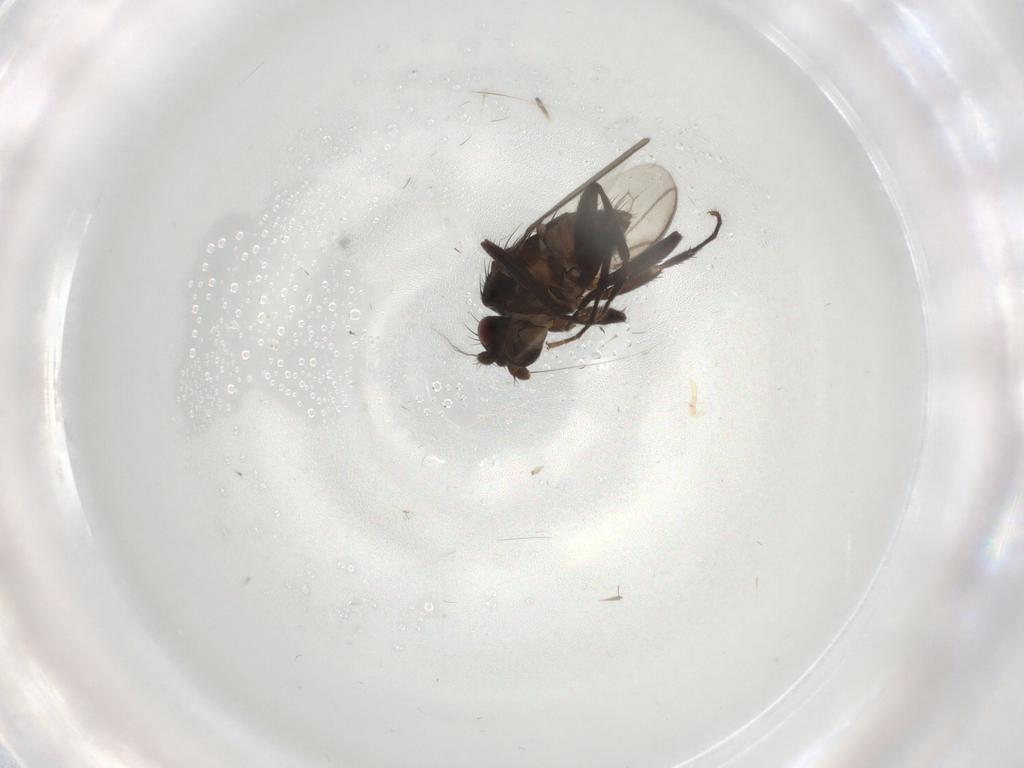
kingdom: Animalia
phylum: Arthropoda
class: Insecta
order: Diptera
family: Sphaeroceridae
